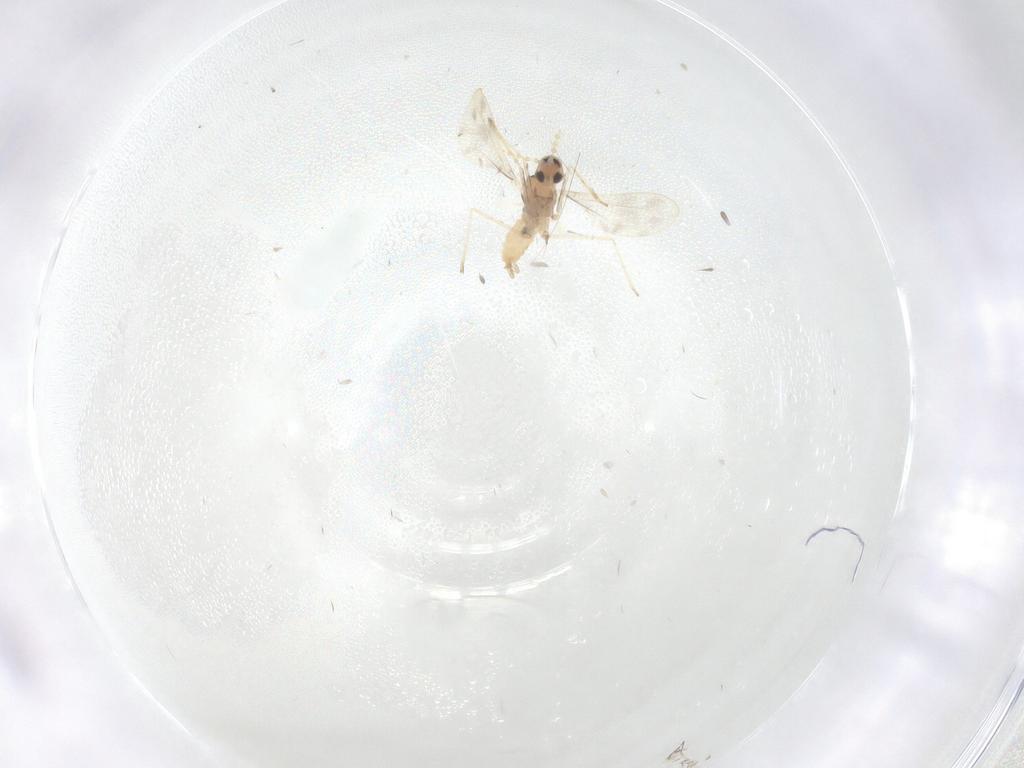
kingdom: Animalia
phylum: Arthropoda
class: Insecta
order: Diptera
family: Cecidomyiidae
